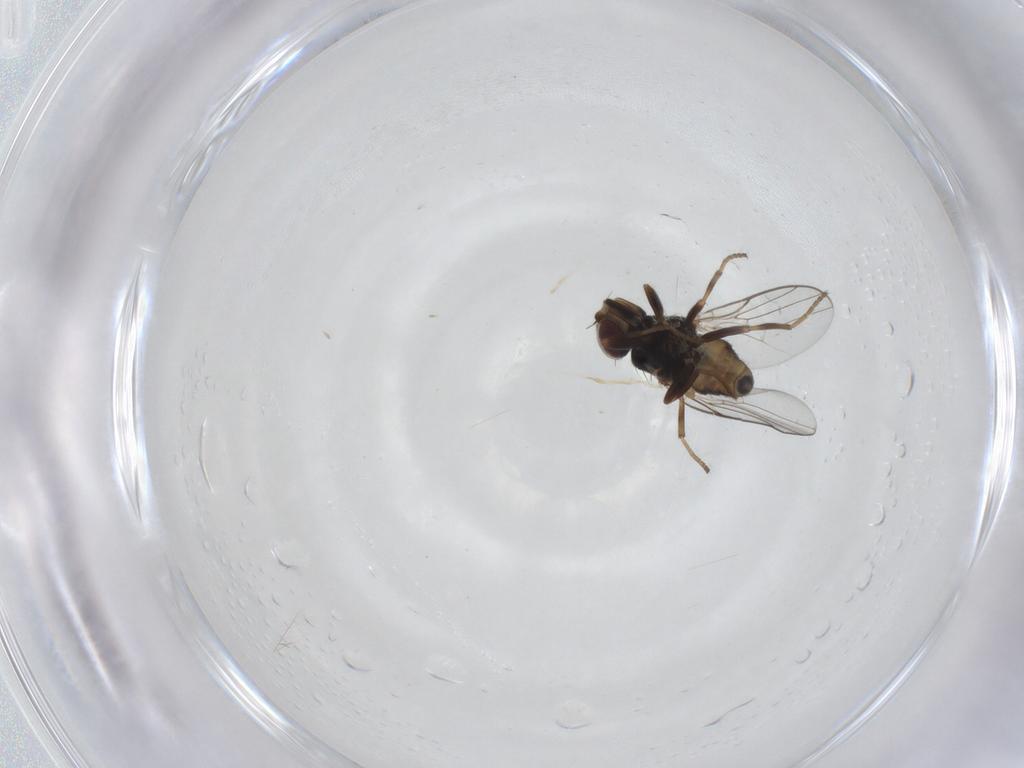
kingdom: Animalia
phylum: Arthropoda
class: Insecta
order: Diptera
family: Chloropidae
